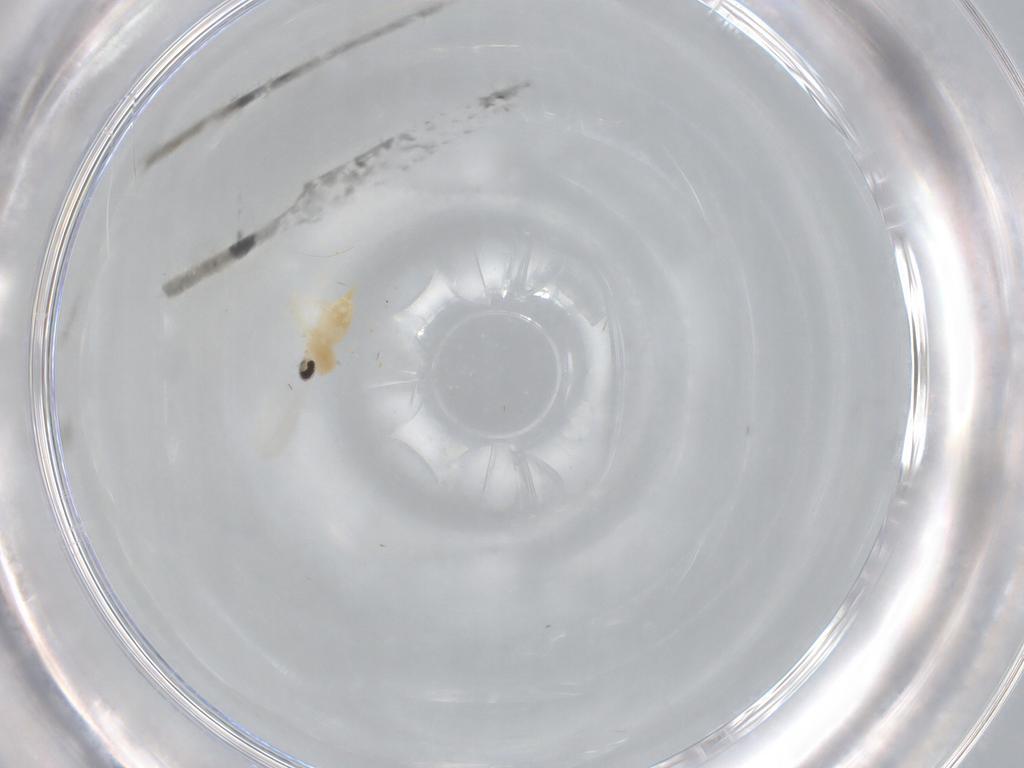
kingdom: Animalia
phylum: Arthropoda
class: Insecta
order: Diptera
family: Cecidomyiidae
